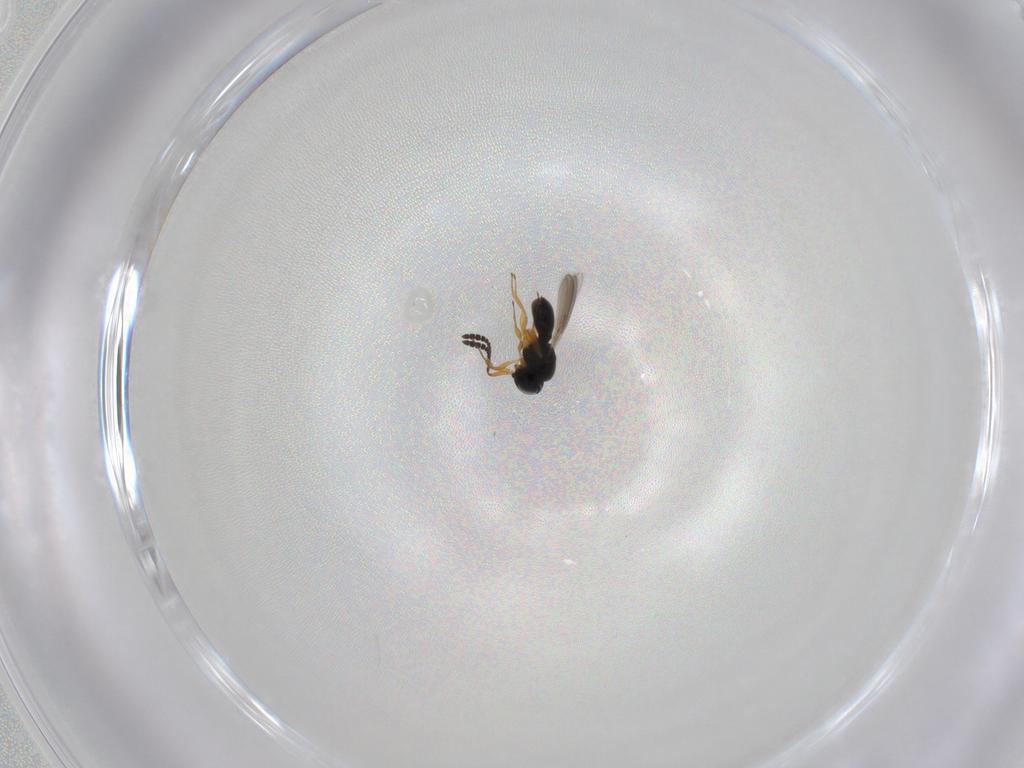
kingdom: Animalia
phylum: Arthropoda
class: Insecta
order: Hymenoptera
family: Scelionidae
